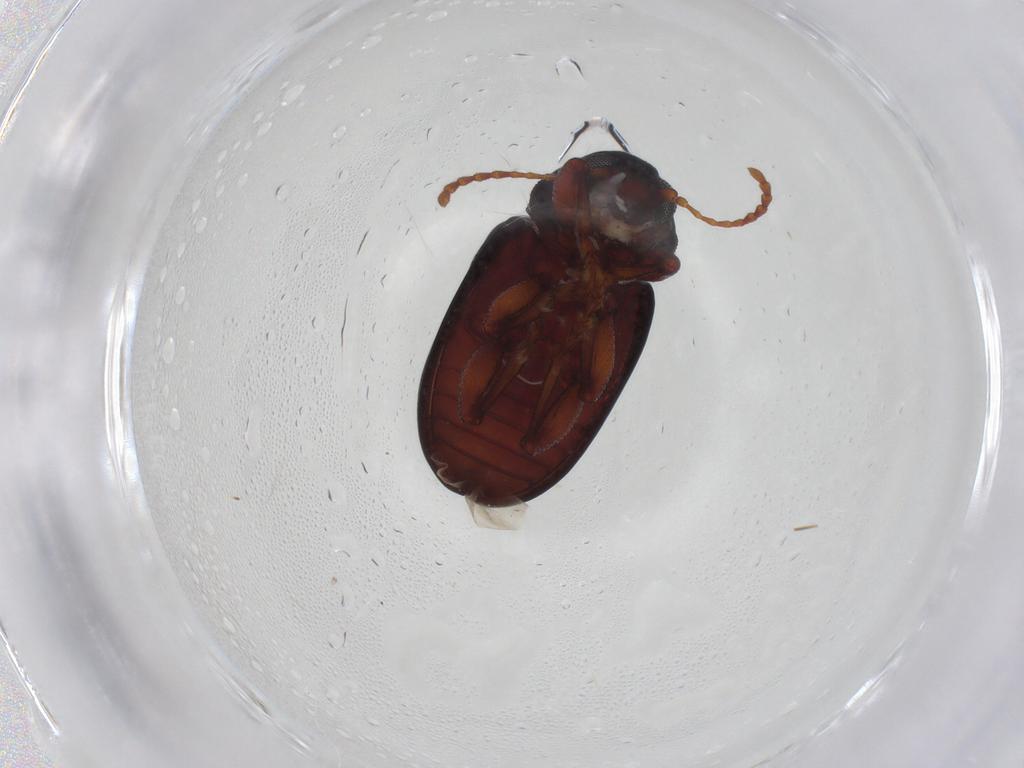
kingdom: Animalia
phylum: Arthropoda
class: Insecta
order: Coleoptera
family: Chrysomelidae
